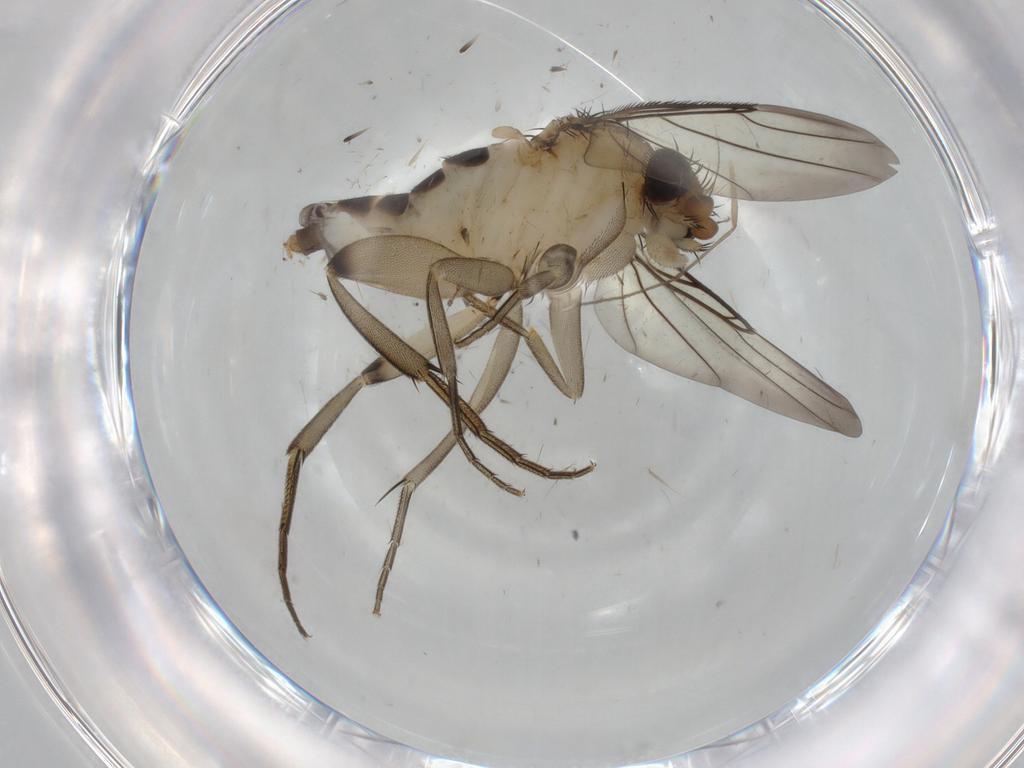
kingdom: Animalia
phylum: Arthropoda
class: Insecta
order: Diptera
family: Phoridae
